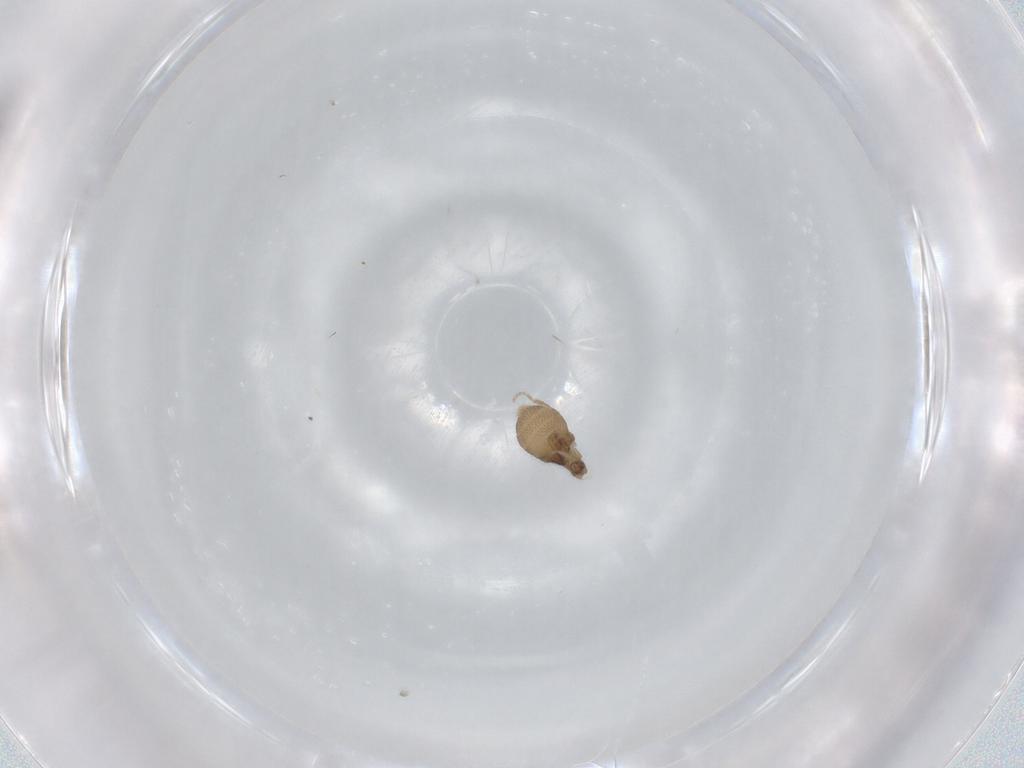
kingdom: Animalia
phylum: Arthropoda
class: Insecta
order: Diptera
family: Phoridae
